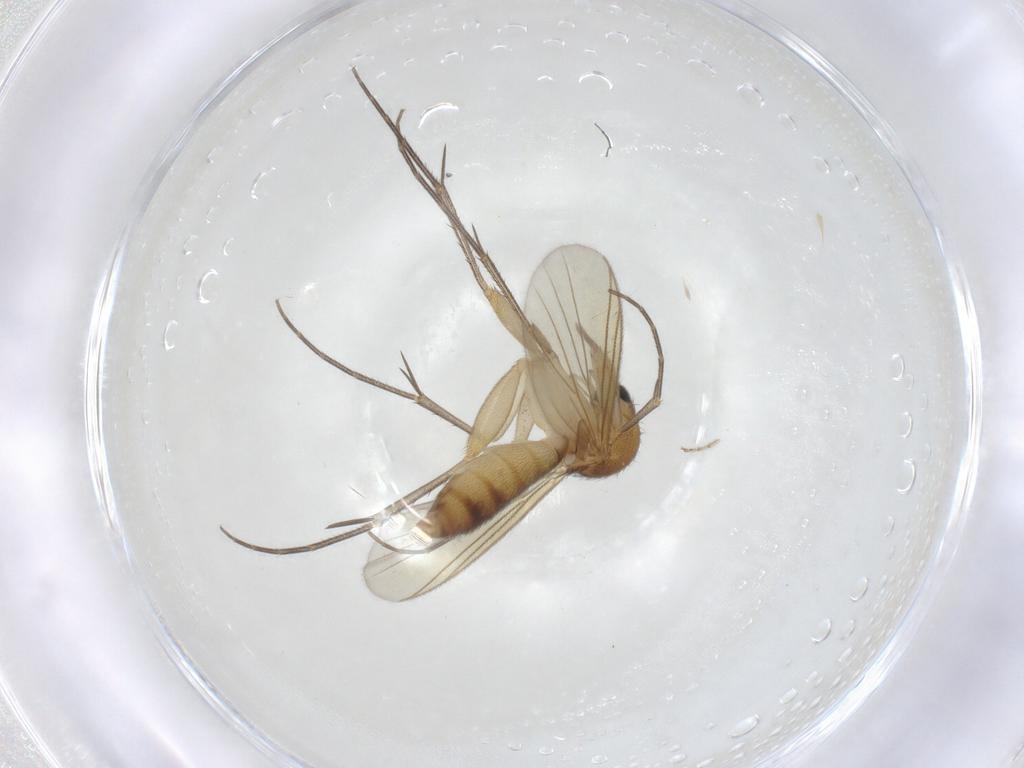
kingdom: Animalia
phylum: Arthropoda
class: Insecta
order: Diptera
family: Mycetophilidae
